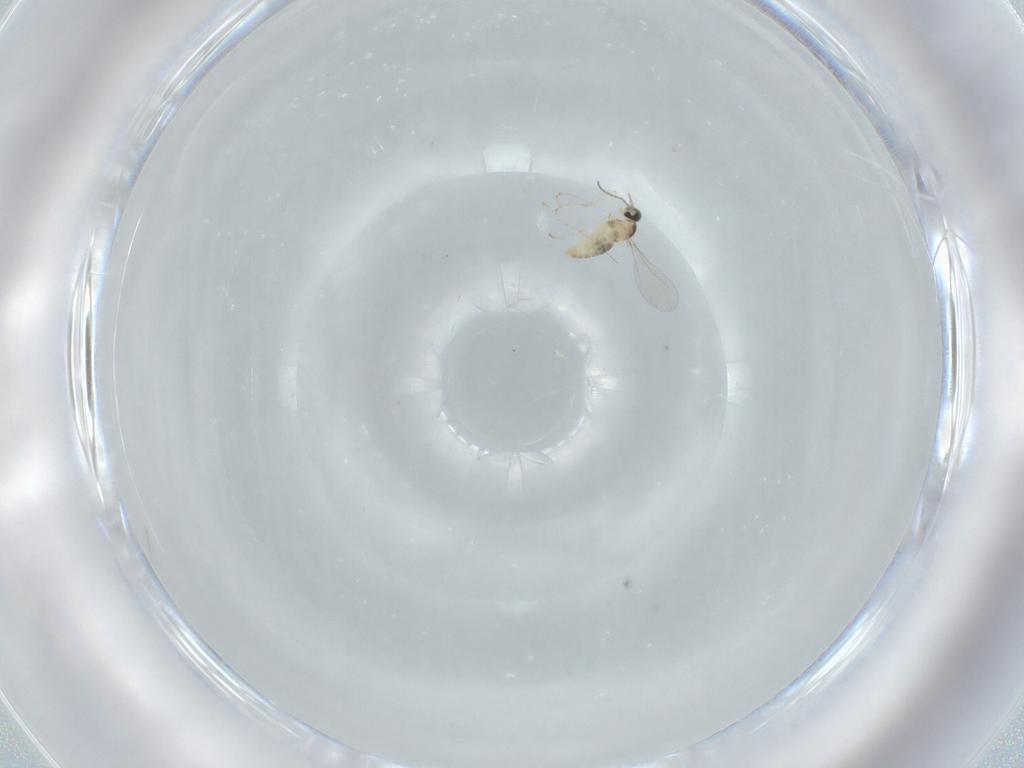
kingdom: Animalia
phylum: Arthropoda
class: Insecta
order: Diptera
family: Cecidomyiidae
